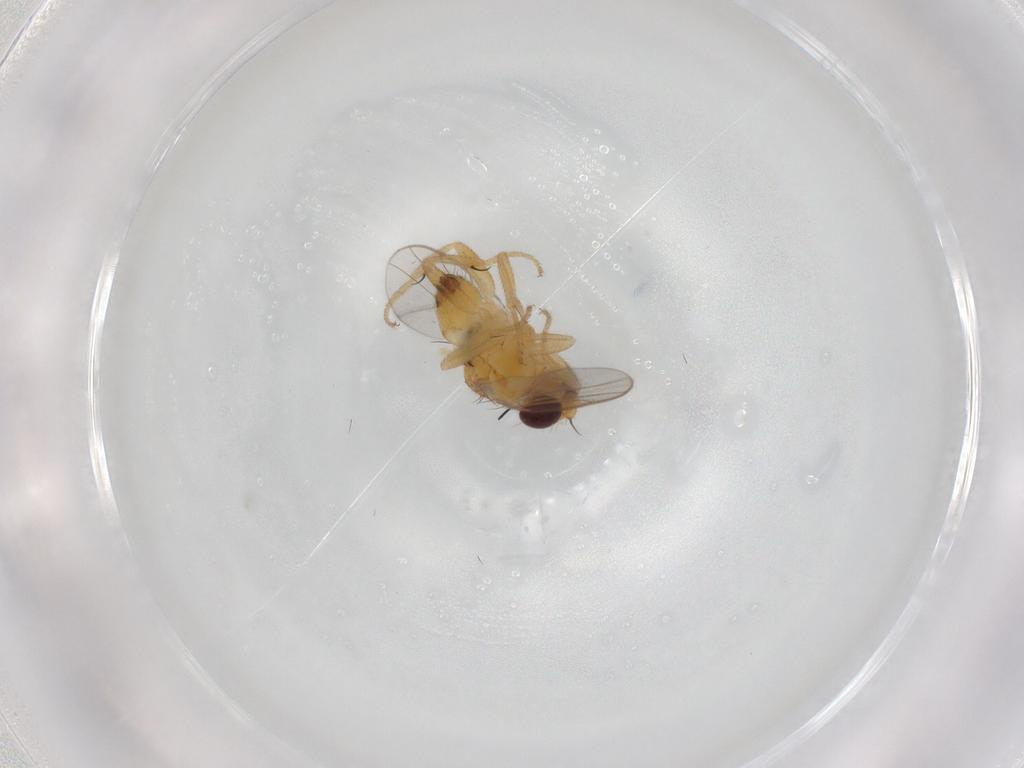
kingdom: Animalia
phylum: Arthropoda
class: Insecta
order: Diptera
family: Chloropidae
